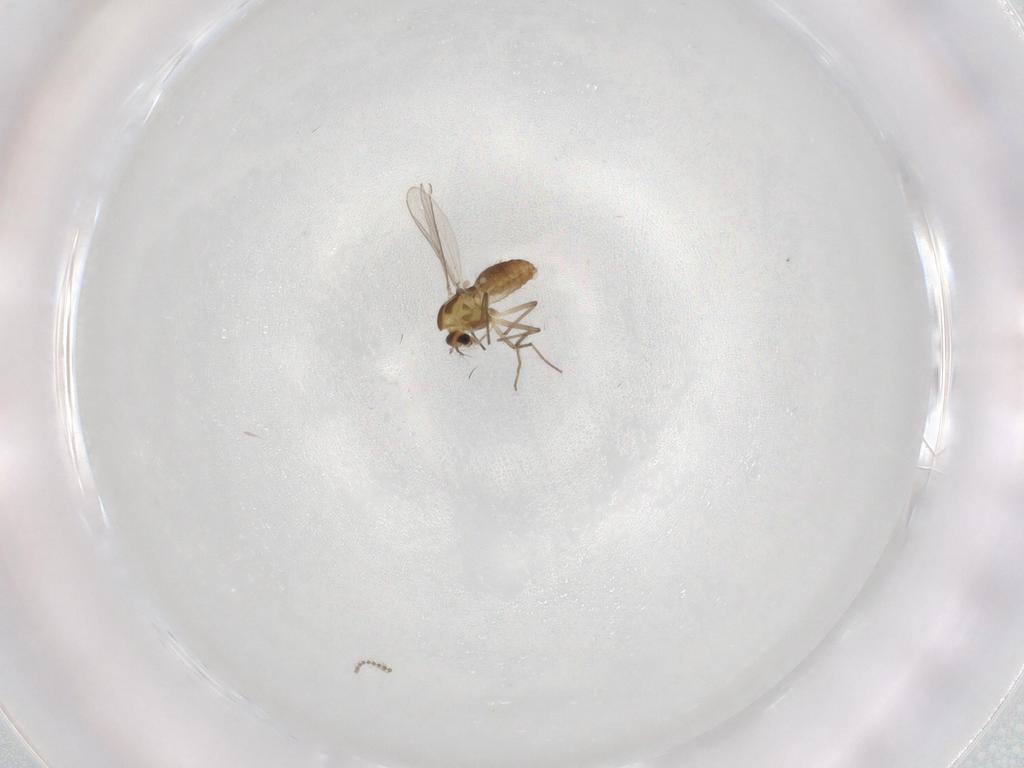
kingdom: Animalia
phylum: Arthropoda
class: Insecta
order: Diptera
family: Chironomidae
